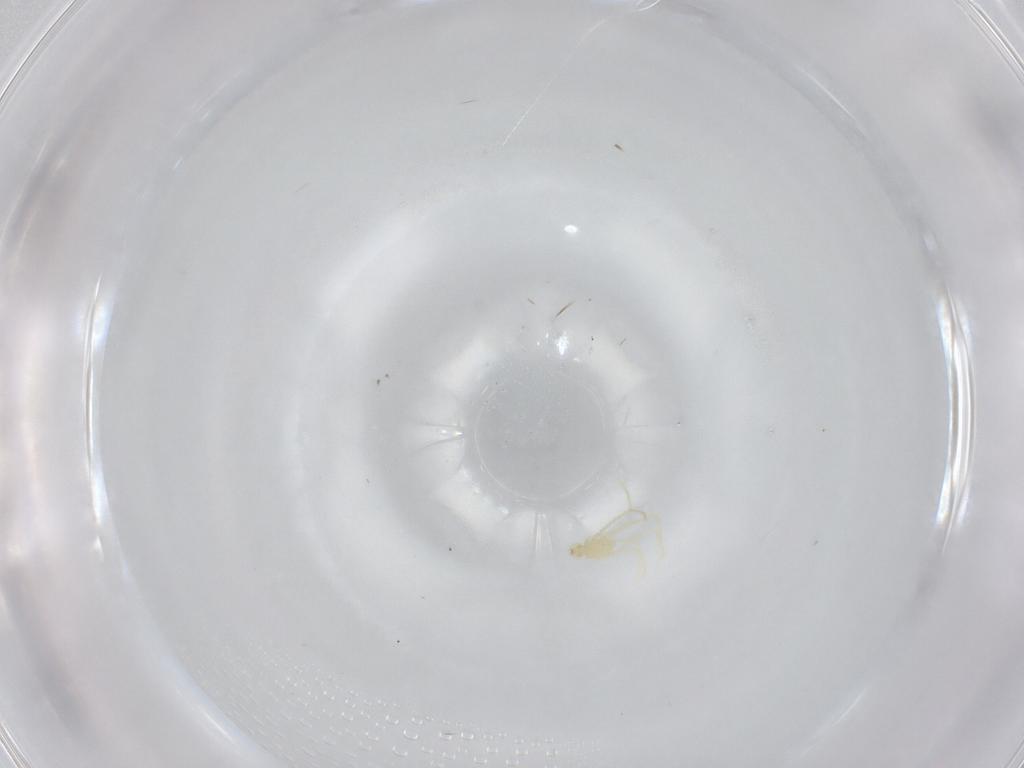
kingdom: Animalia
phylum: Arthropoda
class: Arachnida
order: Trombidiformes
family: Erythraeidae
